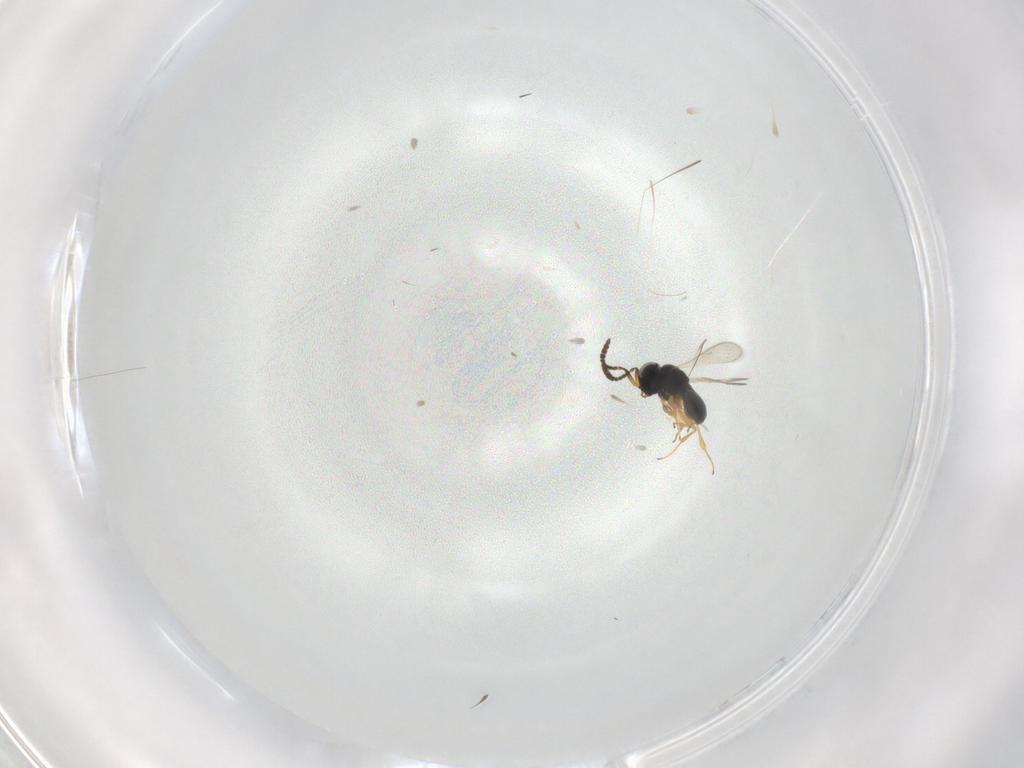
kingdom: Animalia
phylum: Arthropoda
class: Insecta
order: Hymenoptera
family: Scelionidae
